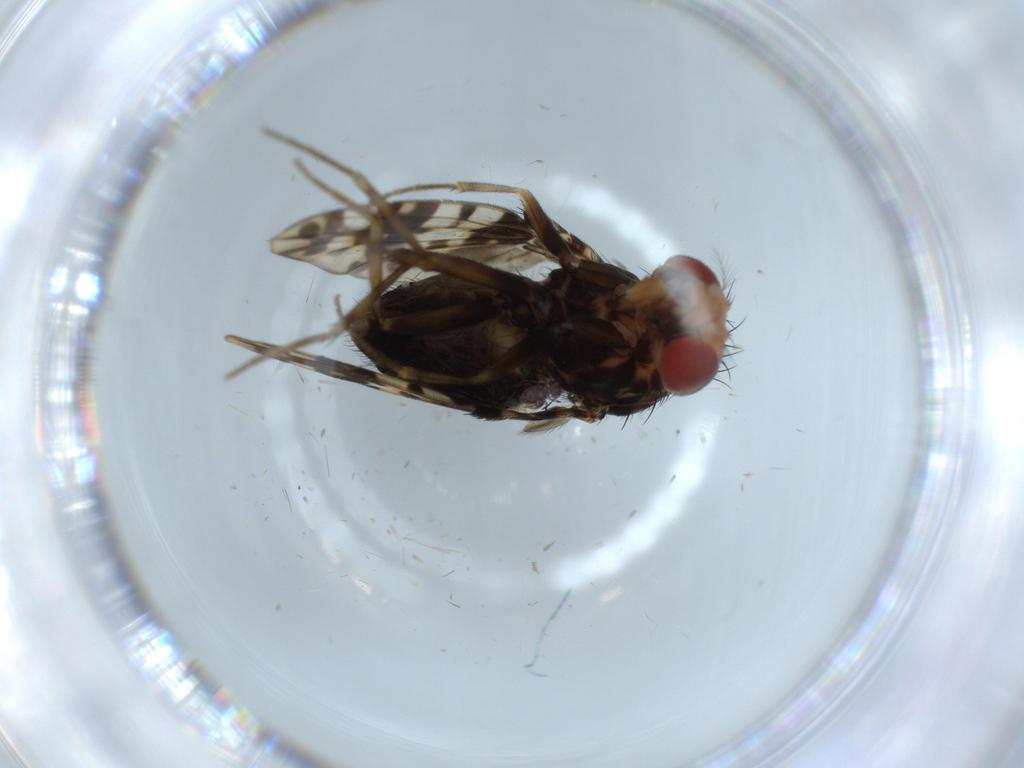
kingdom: Animalia
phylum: Arthropoda
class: Insecta
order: Diptera
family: Drosophilidae
